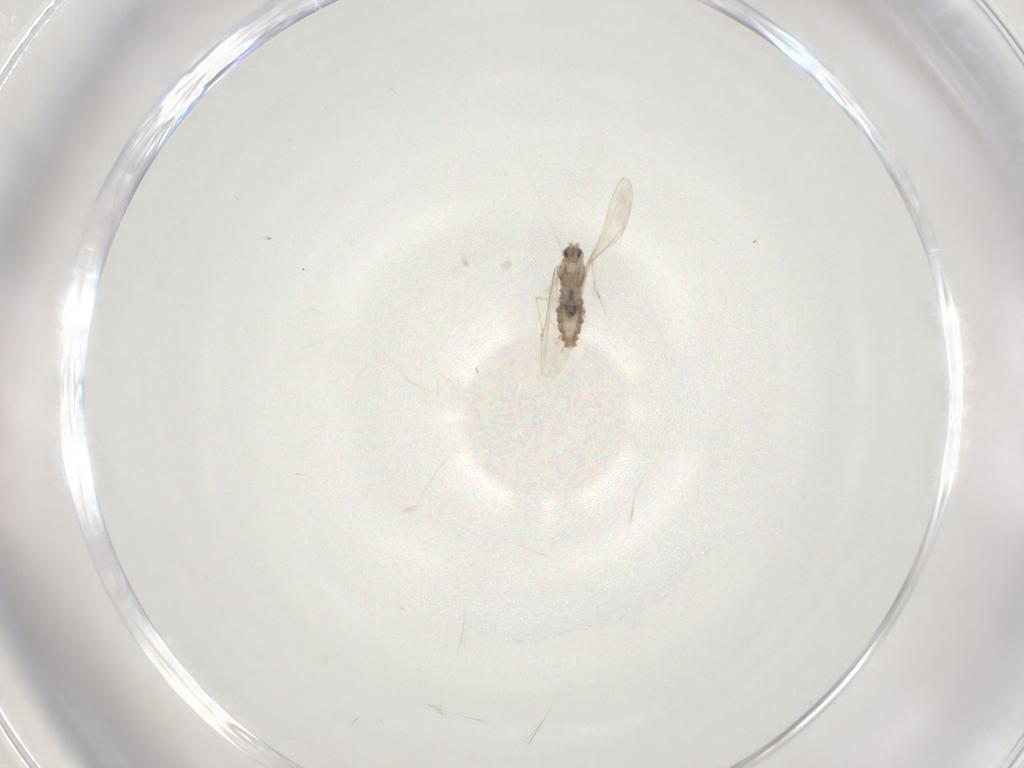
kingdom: Animalia
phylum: Arthropoda
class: Insecta
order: Diptera
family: Cecidomyiidae
